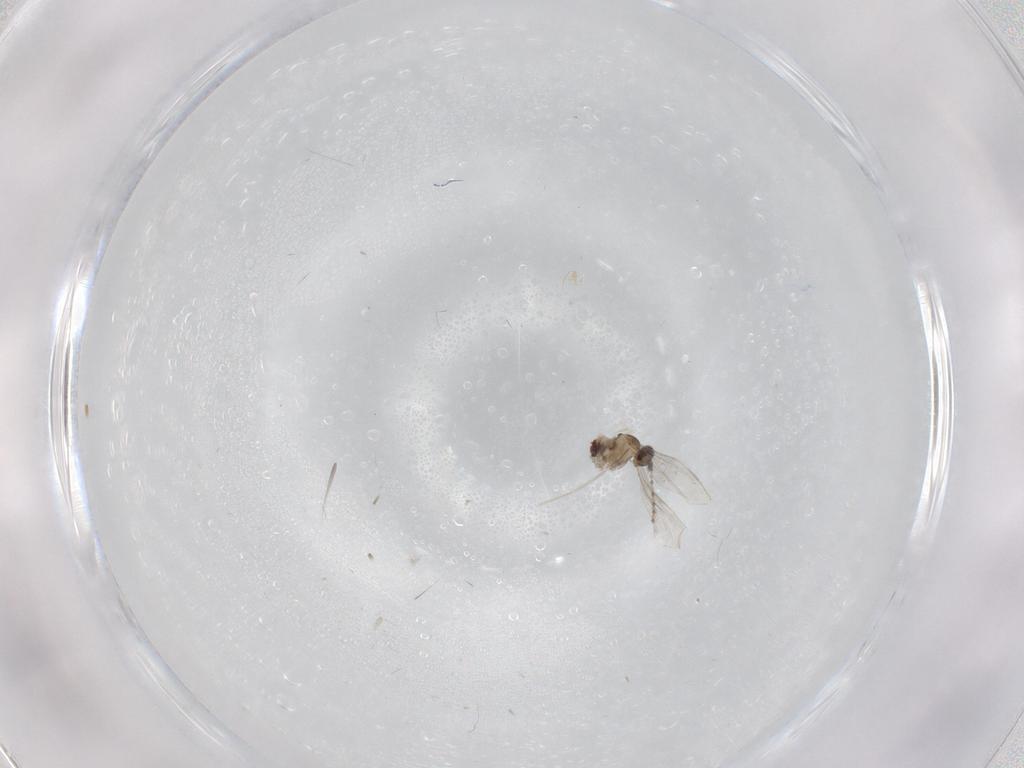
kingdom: Animalia
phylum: Arthropoda
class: Insecta
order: Diptera
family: Cecidomyiidae
